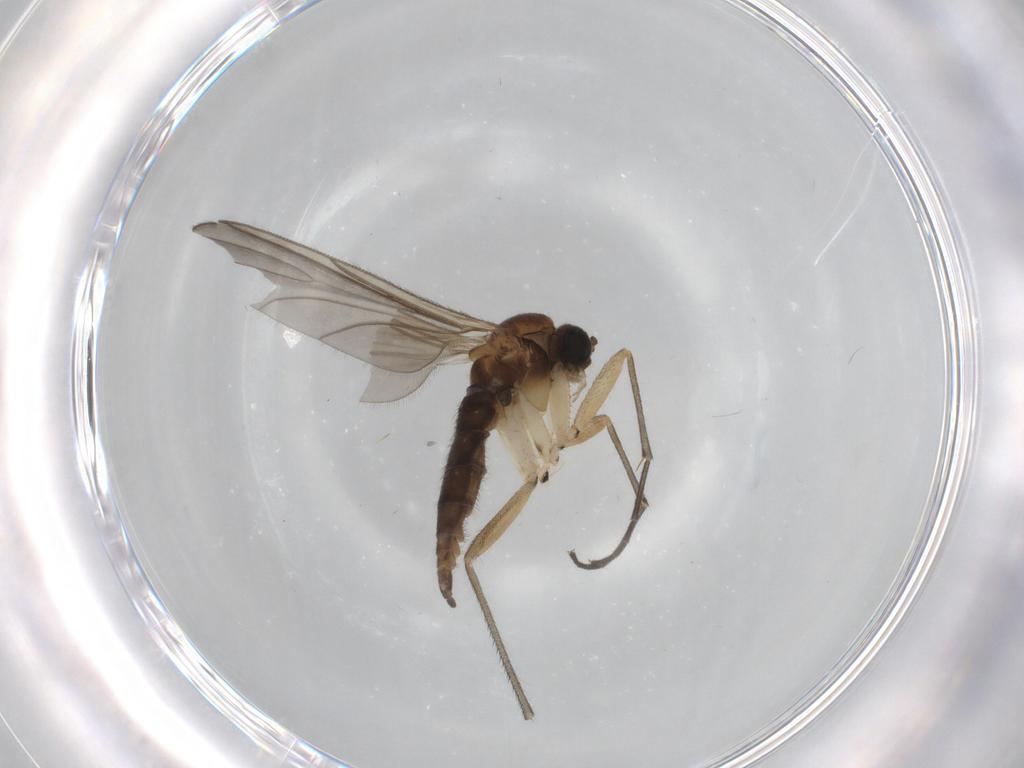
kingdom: Animalia
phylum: Arthropoda
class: Insecta
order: Diptera
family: Sciaridae
